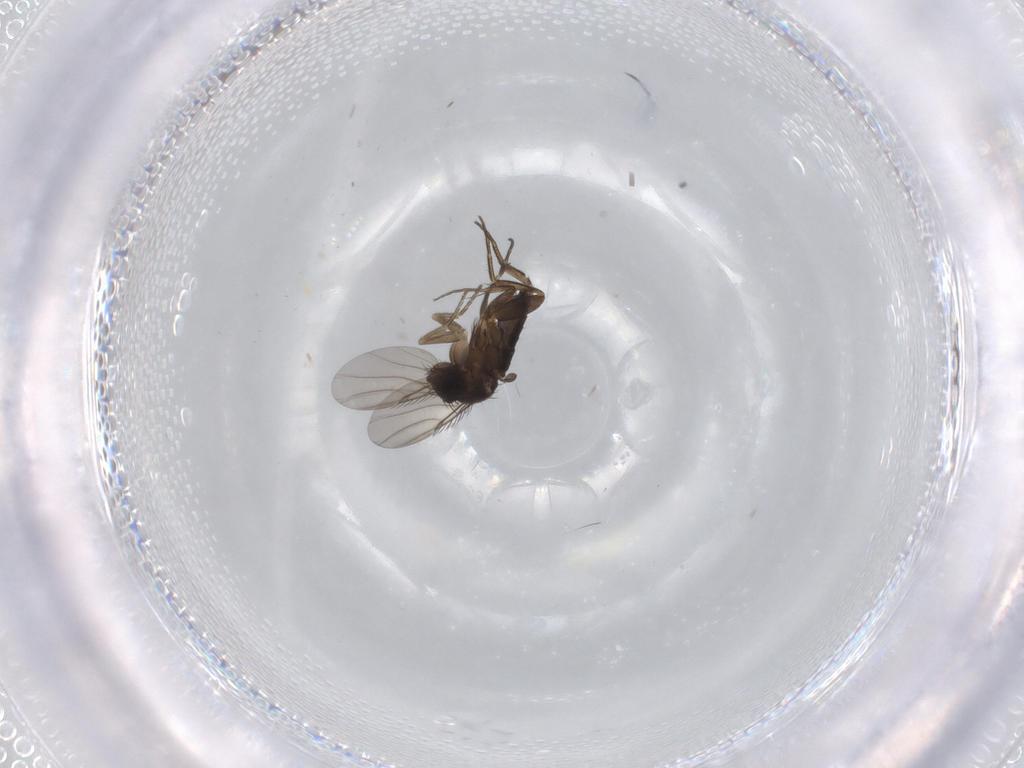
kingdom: Animalia
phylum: Arthropoda
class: Insecta
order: Diptera
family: Phoridae
